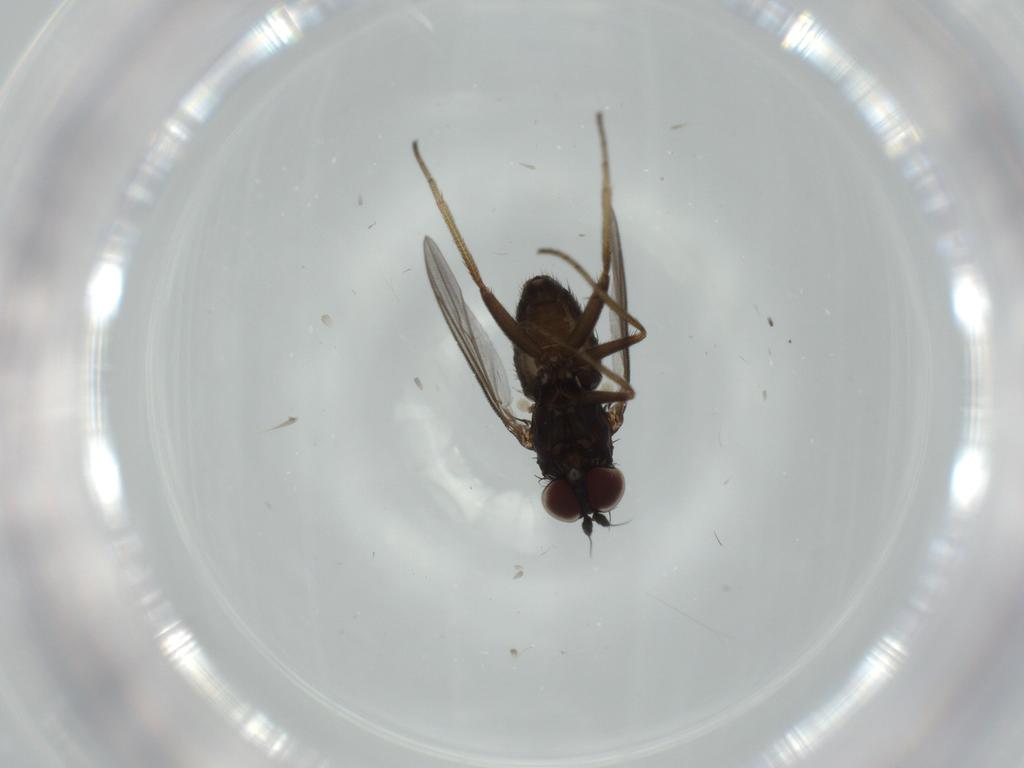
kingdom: Animalia
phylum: Arthropoda
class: Insecta
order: Diptera
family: Dolichopodidae
